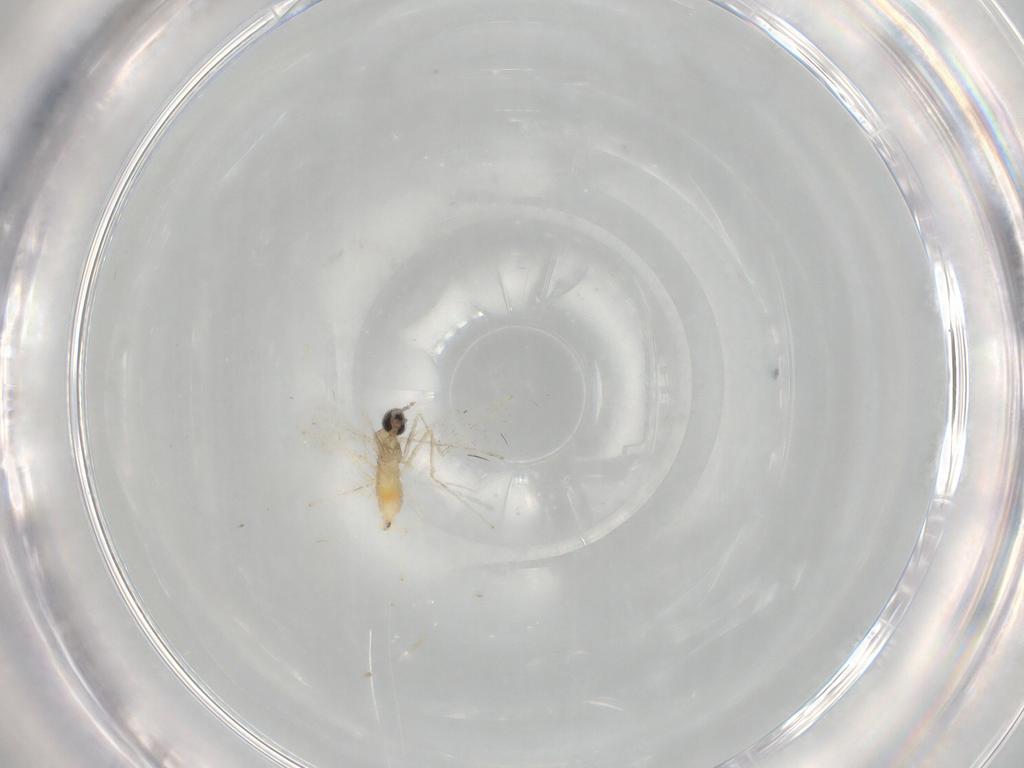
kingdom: Animalia
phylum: Arthropoda
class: Insecta
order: Diptera
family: Cecidomyiidae
